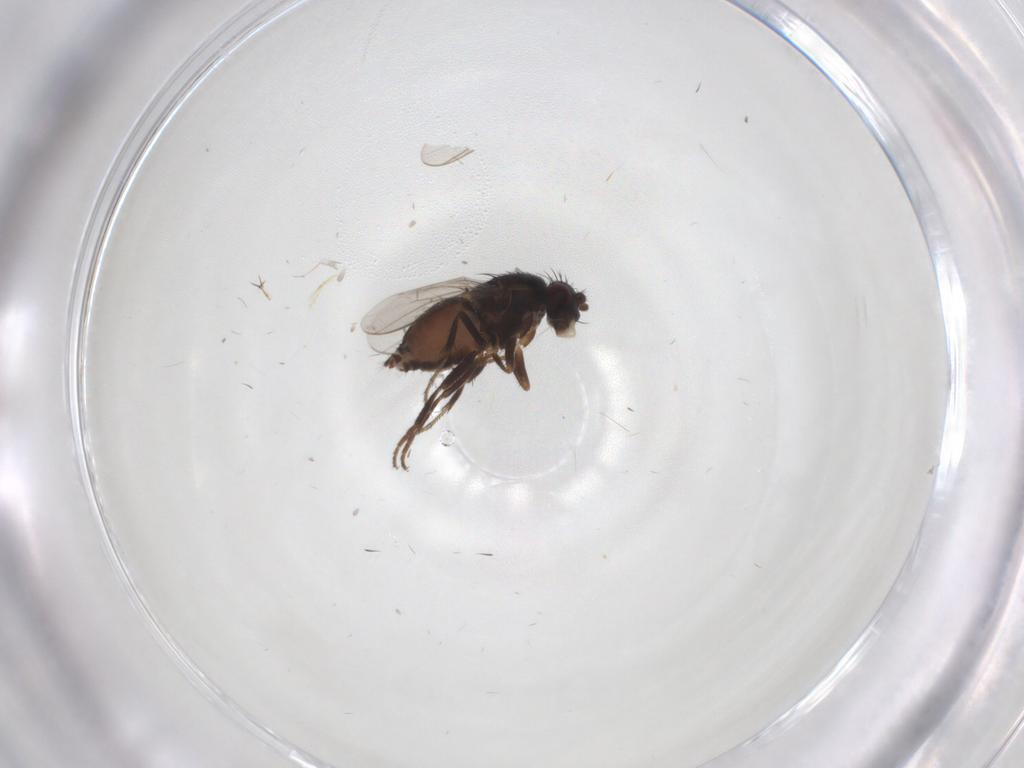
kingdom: Animalia
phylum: Arthropoda
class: Insecta
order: Diptera
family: Sphaeroceridae
